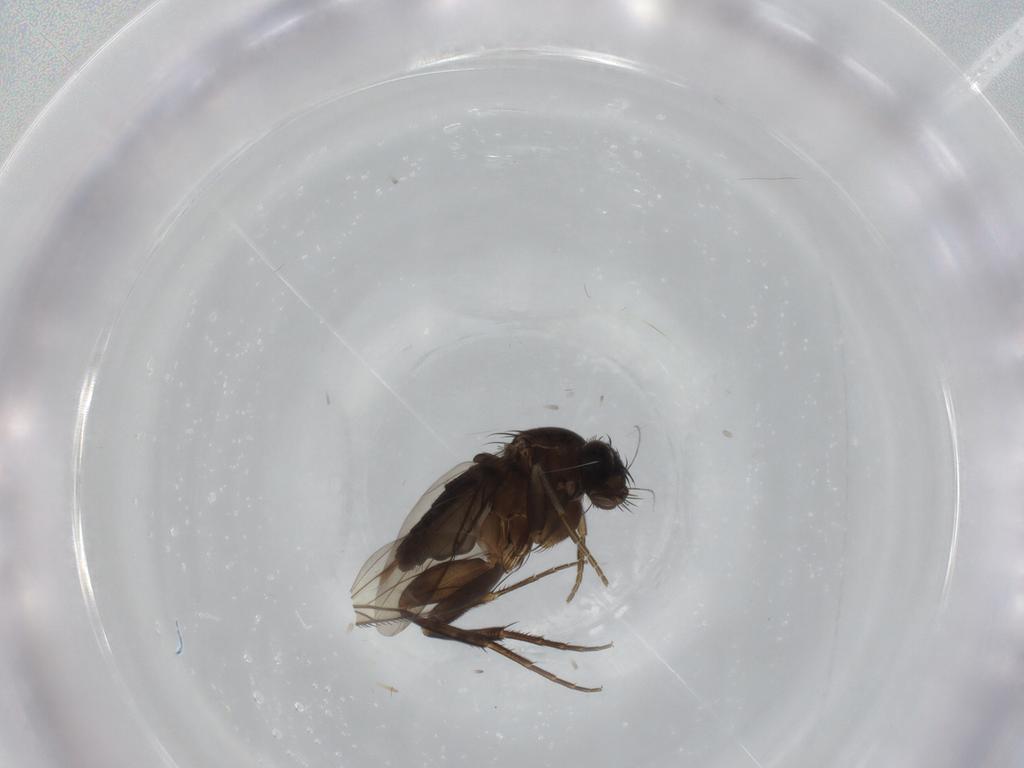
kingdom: Animalia
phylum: Arthropoda
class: Insecta
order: Diptera
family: Phoridae
